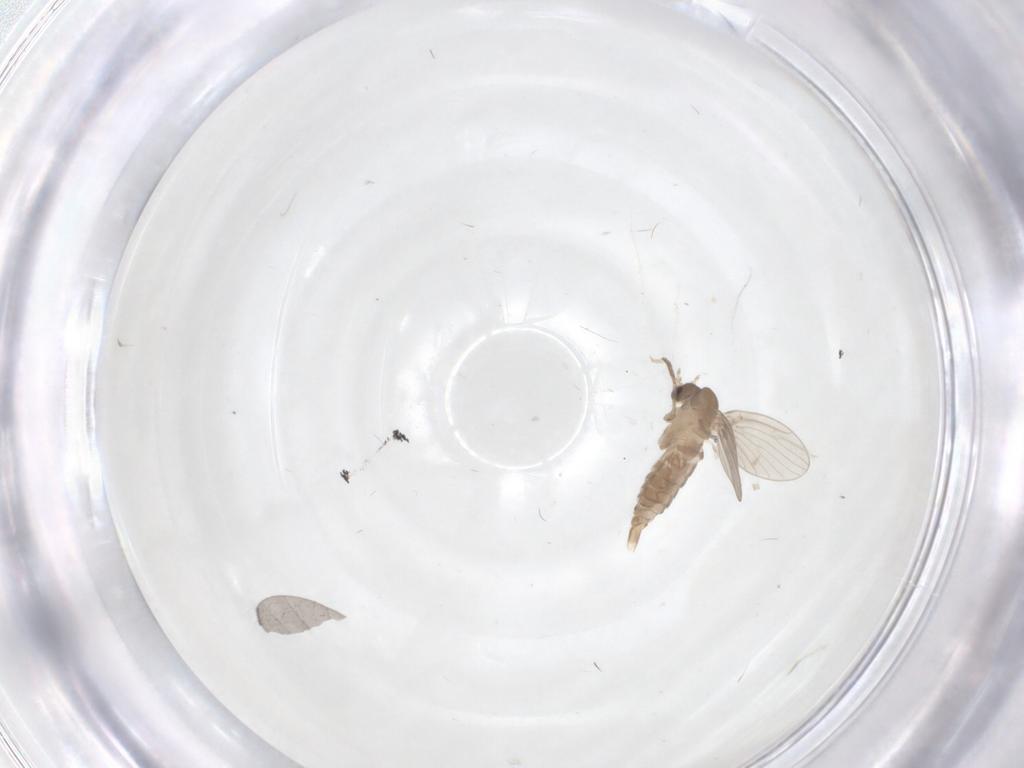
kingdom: Animalia
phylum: Arthropoda
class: Insecta
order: Diptera
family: Sciaridae
